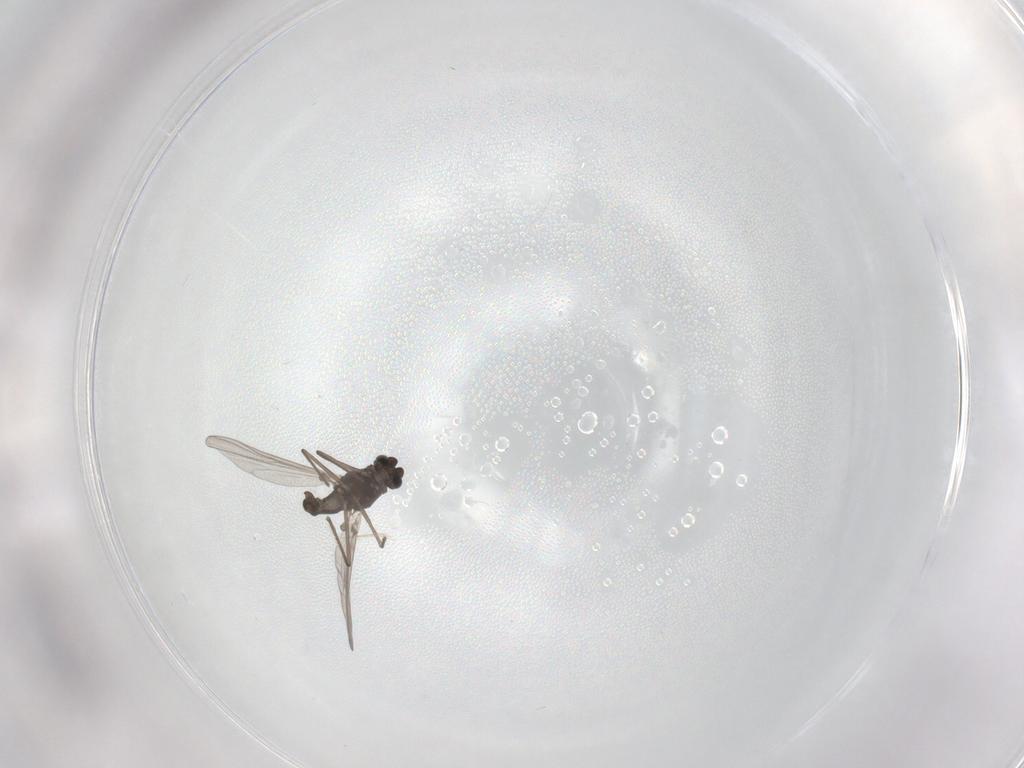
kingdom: Animalia
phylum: Arthropoda
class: Insecta
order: Diptera
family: Chironomidae
